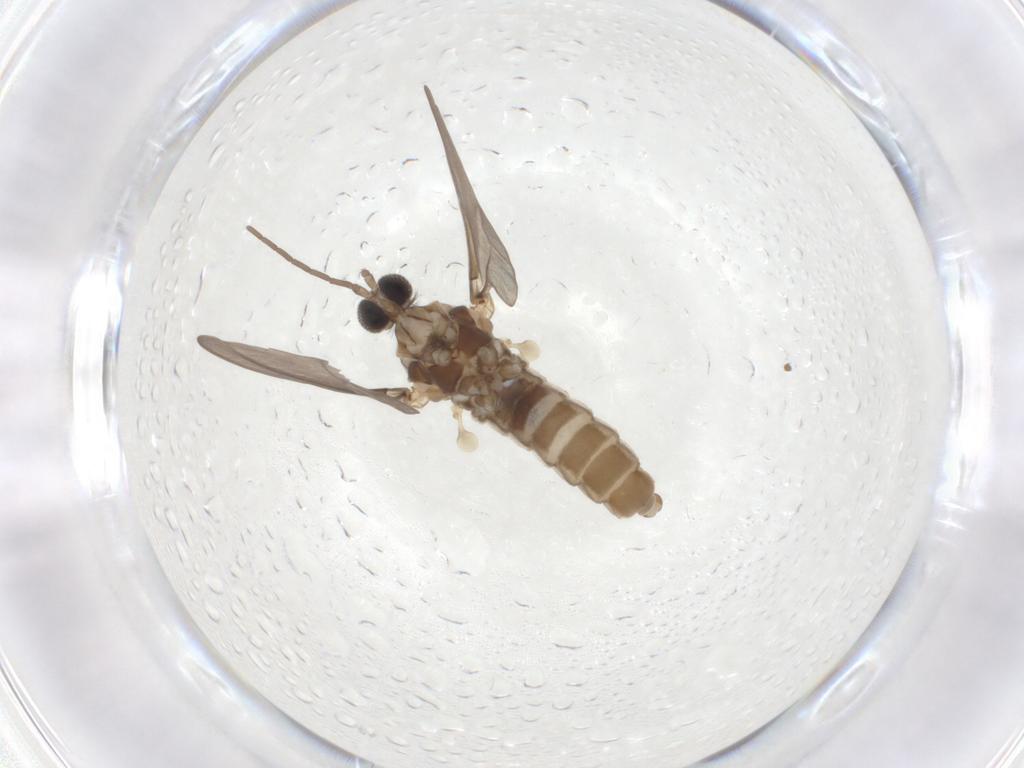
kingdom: Animalia
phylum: Arthropoda
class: Insecta
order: Diptera
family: Cecidomyiidae
